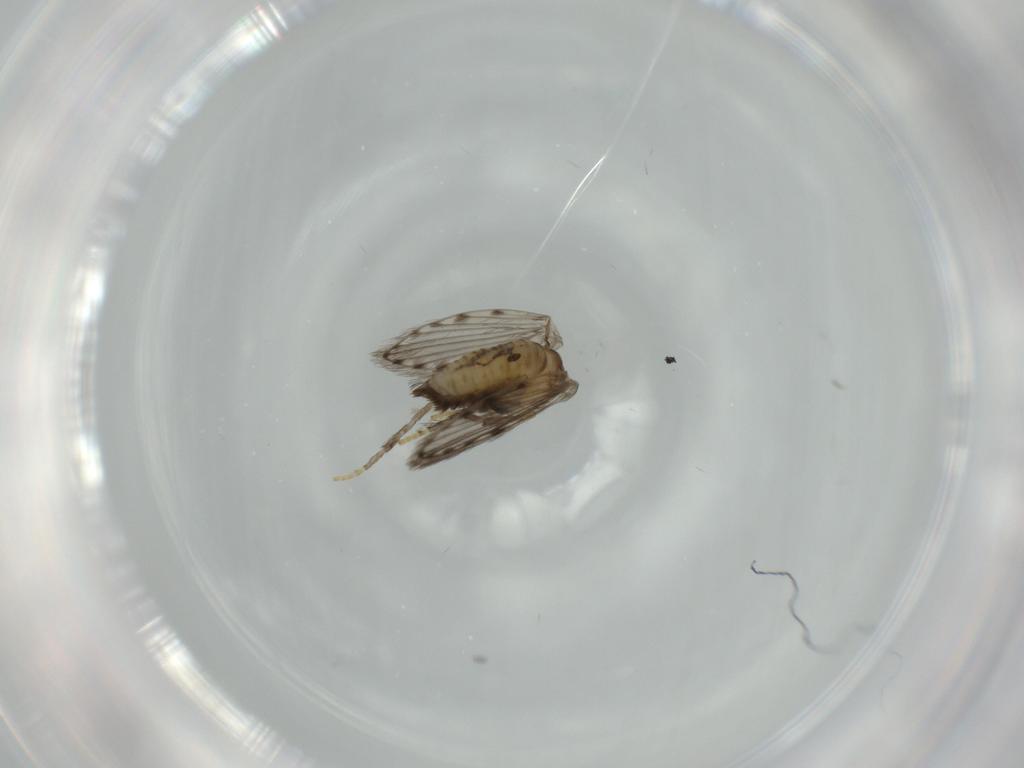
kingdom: Animalia
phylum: Arthropoda
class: Insecta
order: Diptera
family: Psychodidae
